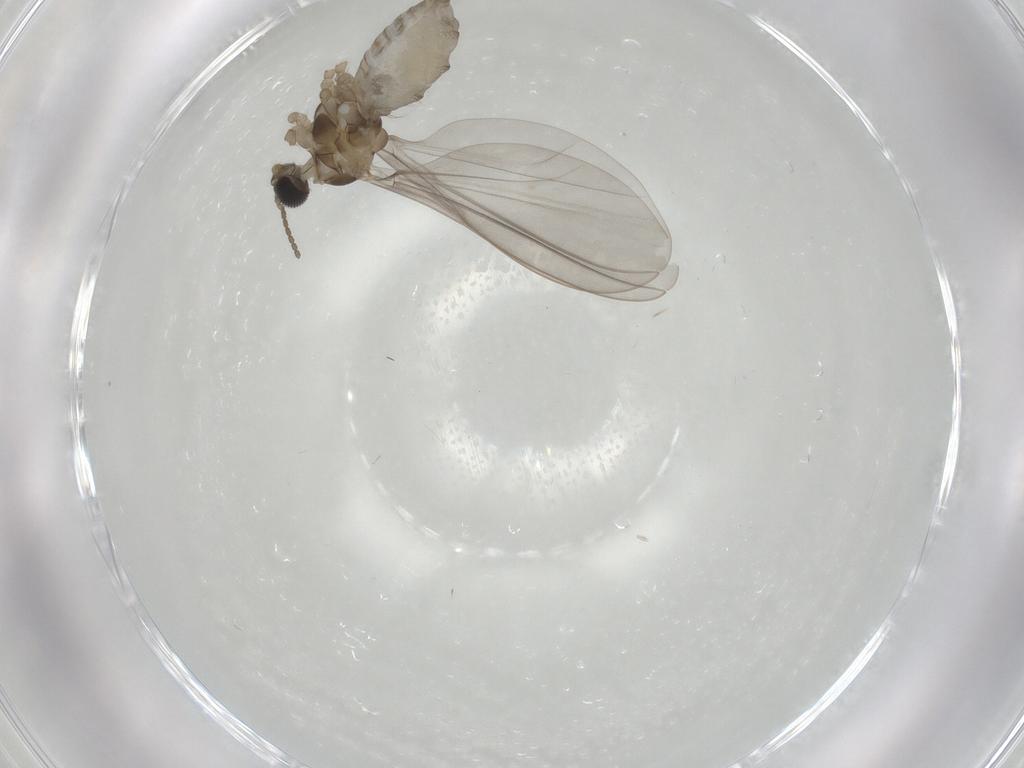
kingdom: Animalia
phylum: Arthropoda
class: Insecta
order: Diptera
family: Cecidomyiidae
